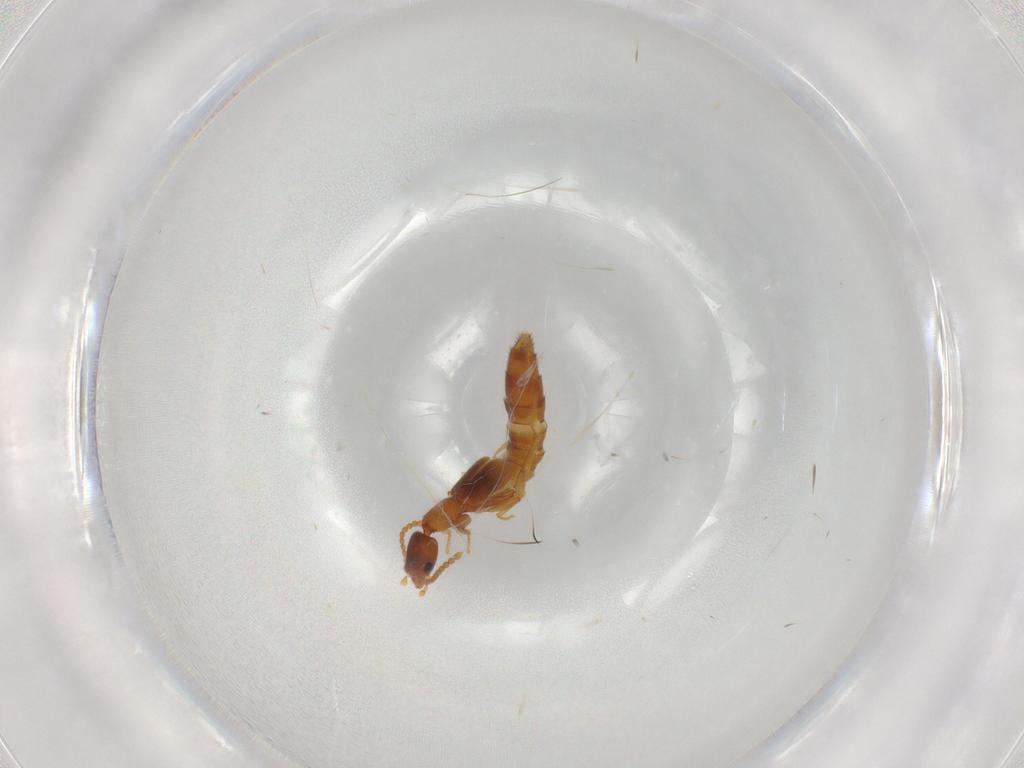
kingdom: Animalia
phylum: Arthropoda
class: Insecta
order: Coleoptera
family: Staphylinidae
